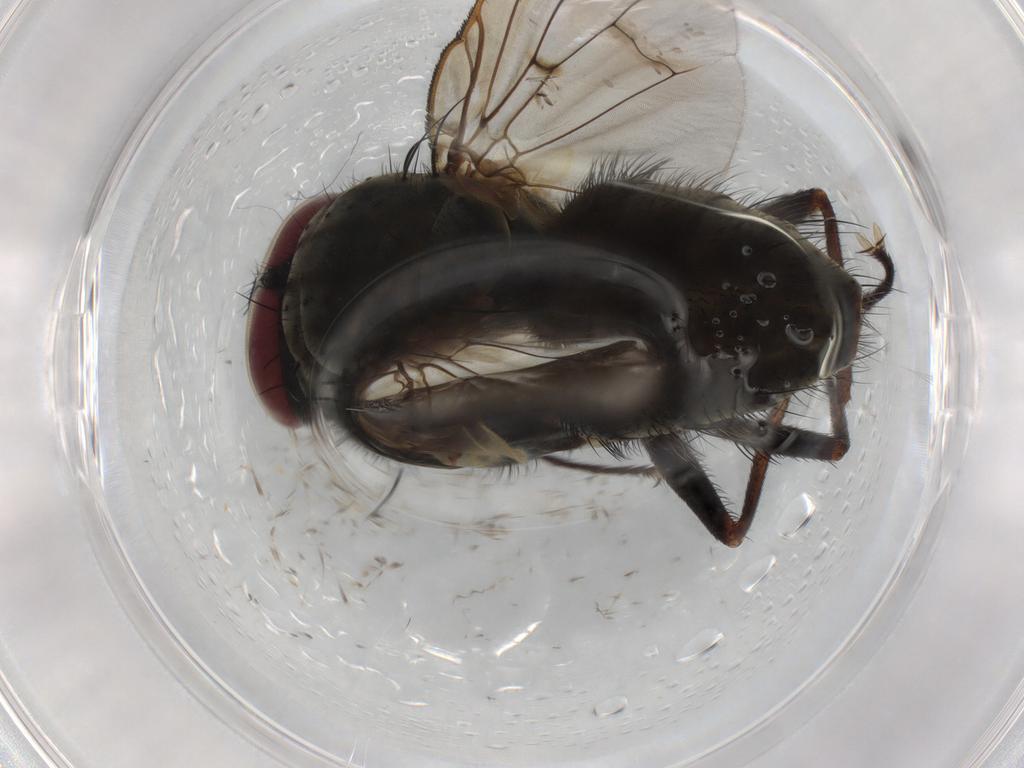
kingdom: Animalia
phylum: Arthropoda
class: Insecta
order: Diptera
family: Muscidae
